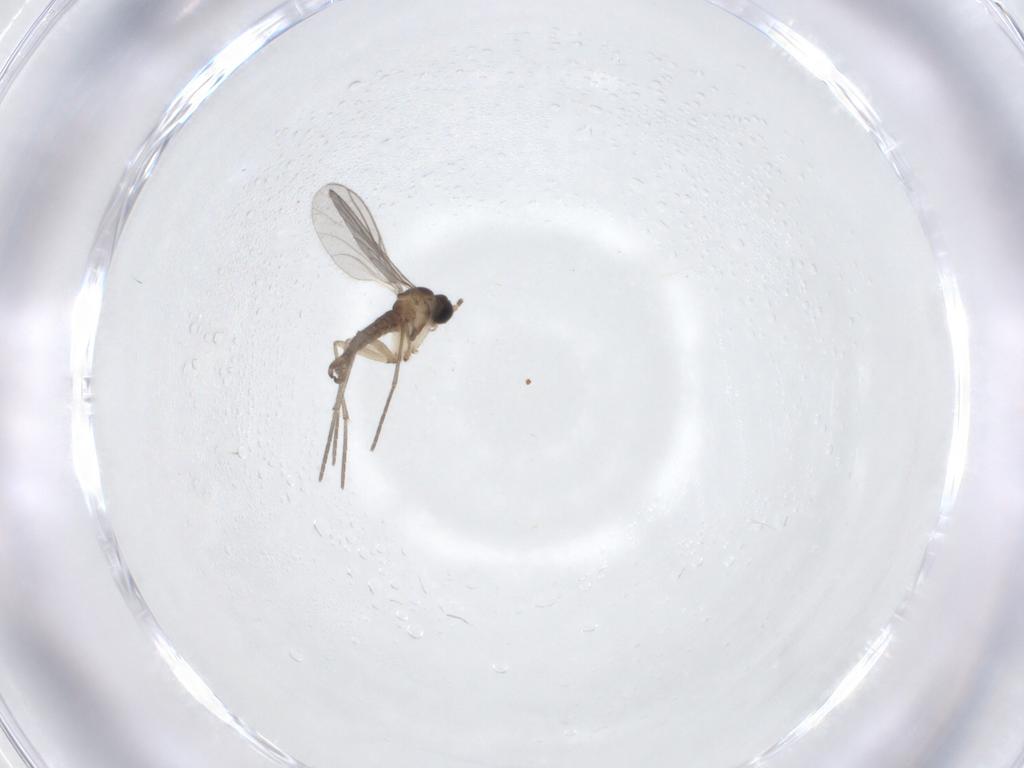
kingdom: Animalia
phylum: Arthropoda
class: Insecta
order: Diptera
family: Sciaridae
